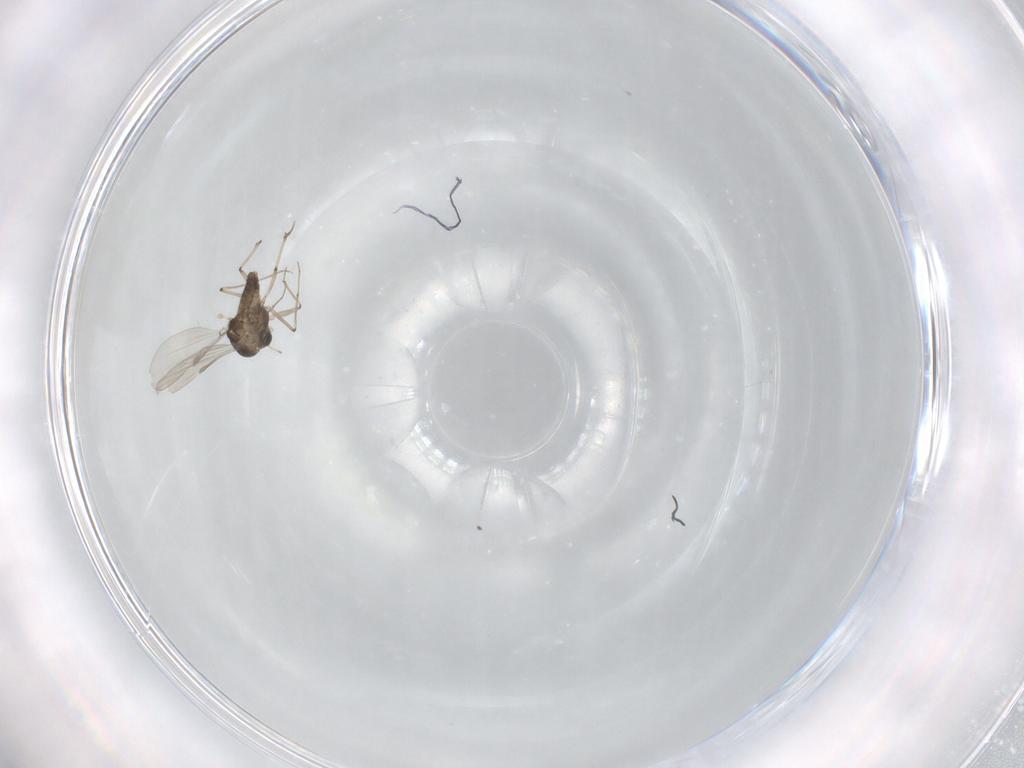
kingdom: Animalia
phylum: Arthropoda
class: Insecta
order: Diptera
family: Chironomidae
